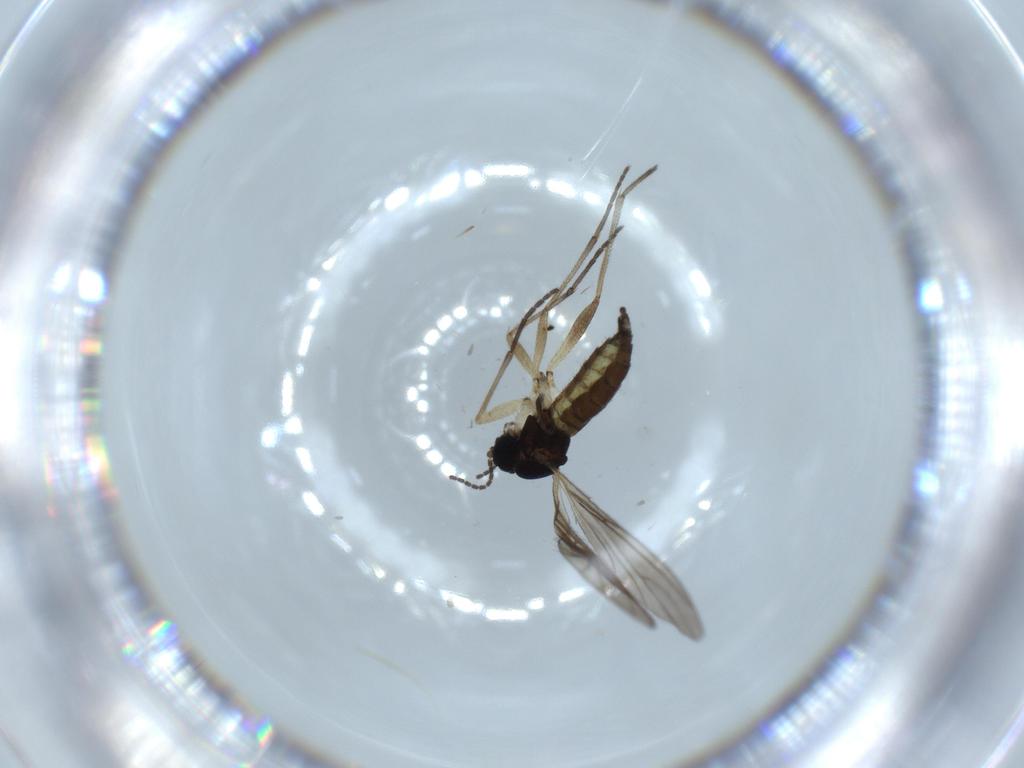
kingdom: Animalia
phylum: Arthropoda
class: Insecta
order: Diptera
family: Sciaridae
